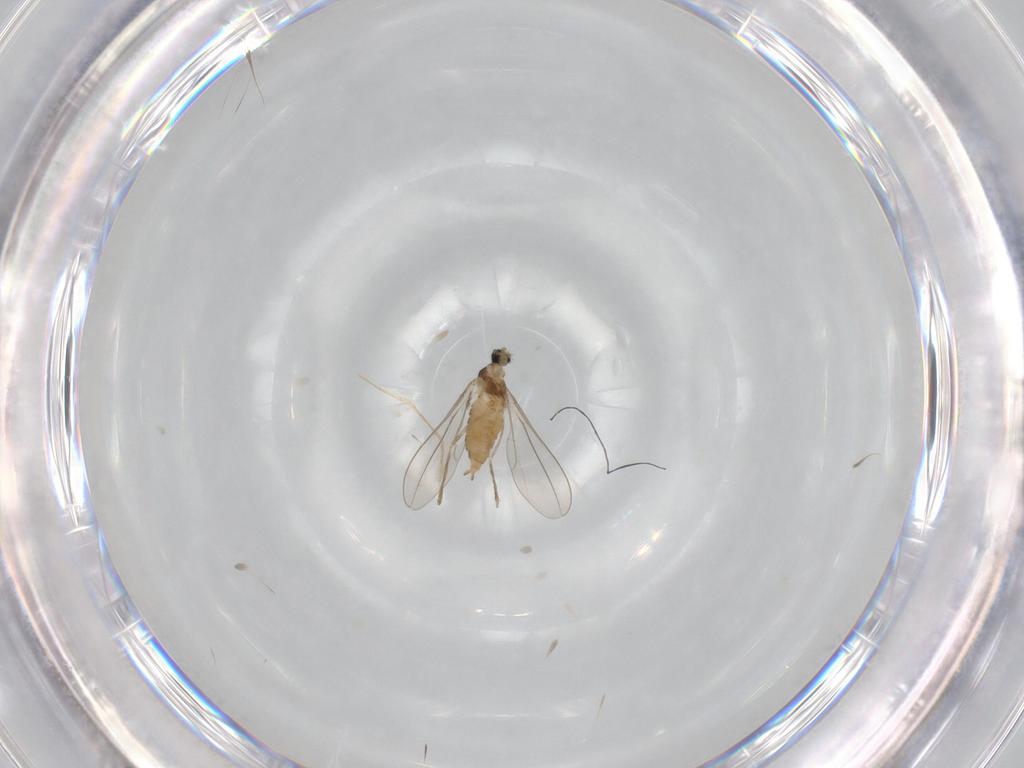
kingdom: Animalia
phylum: Arthropoda
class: Insecta
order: Diptera
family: Cecidomyiidae
